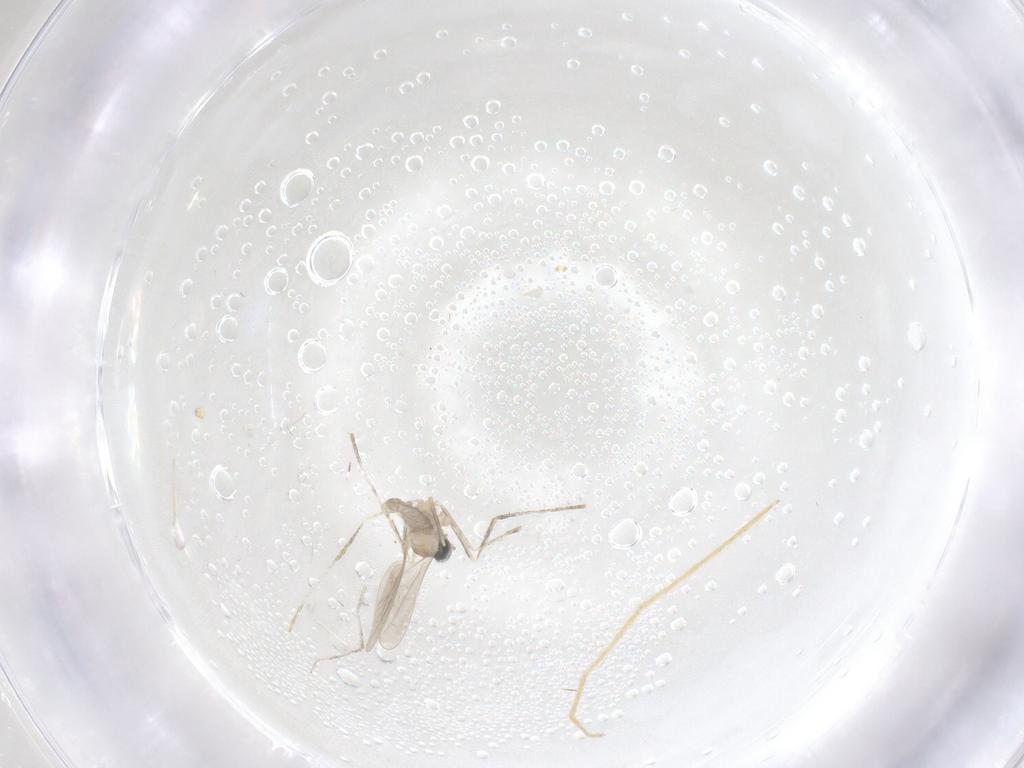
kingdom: Animalia
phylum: Arthropoda
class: Insecta
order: Diptera
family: Cecidomyiidae
